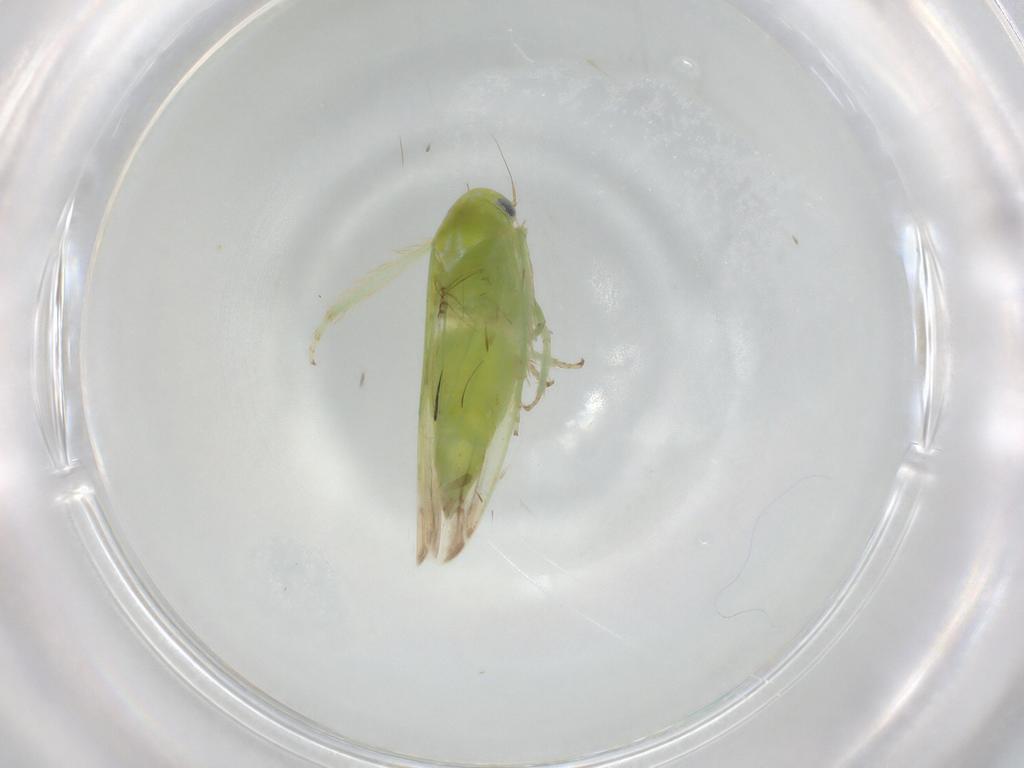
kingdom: Animalia
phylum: Arthropoda
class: Insecta
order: Hemiptera
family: Cicadellidae
